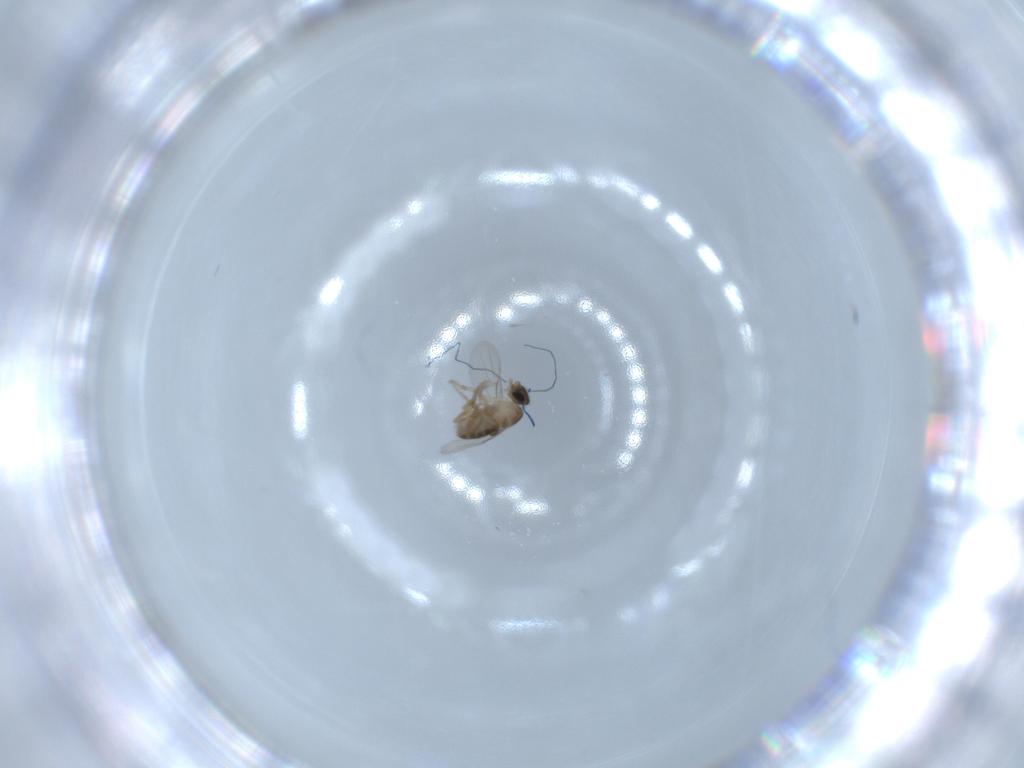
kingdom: Animalia
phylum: Arthropoda
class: Insecta
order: Diptera
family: Phoridae
